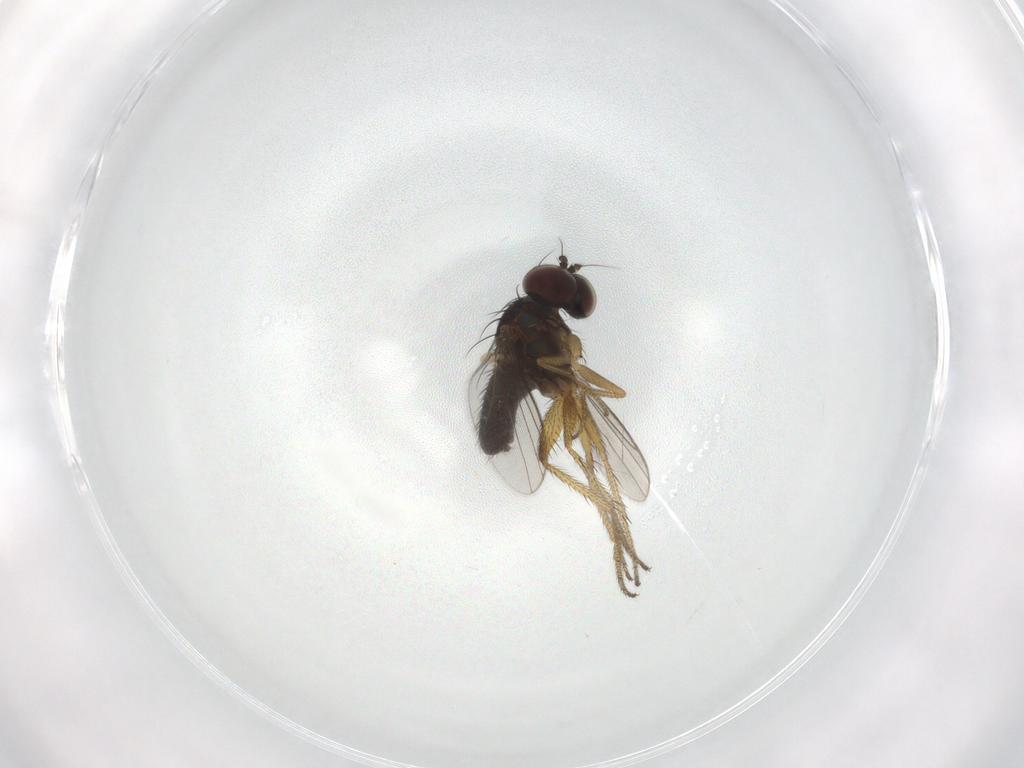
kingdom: Animalia
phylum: Arthropoda
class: Insecta
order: Diptera
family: Dolichopodidae
